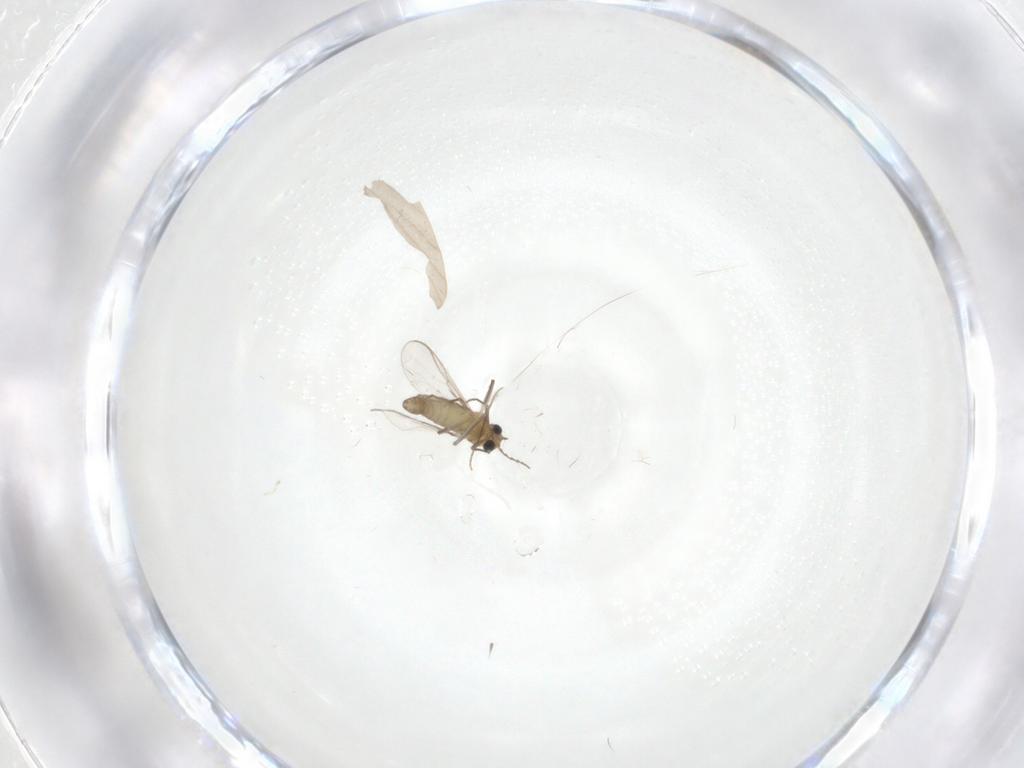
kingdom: Animalia
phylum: Arthropoda
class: Insecta
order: Diptera
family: Chironomidae
